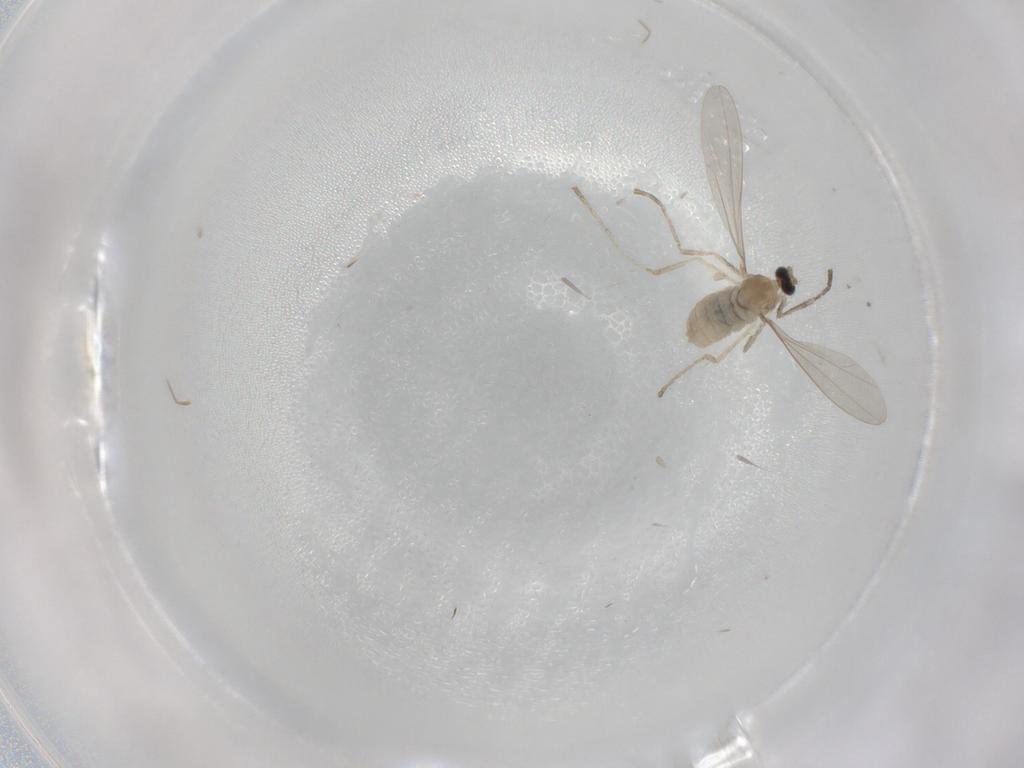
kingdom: Animalia
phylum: Arthropoda
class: Insecta
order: Diptera
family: Cecidomyiidae
